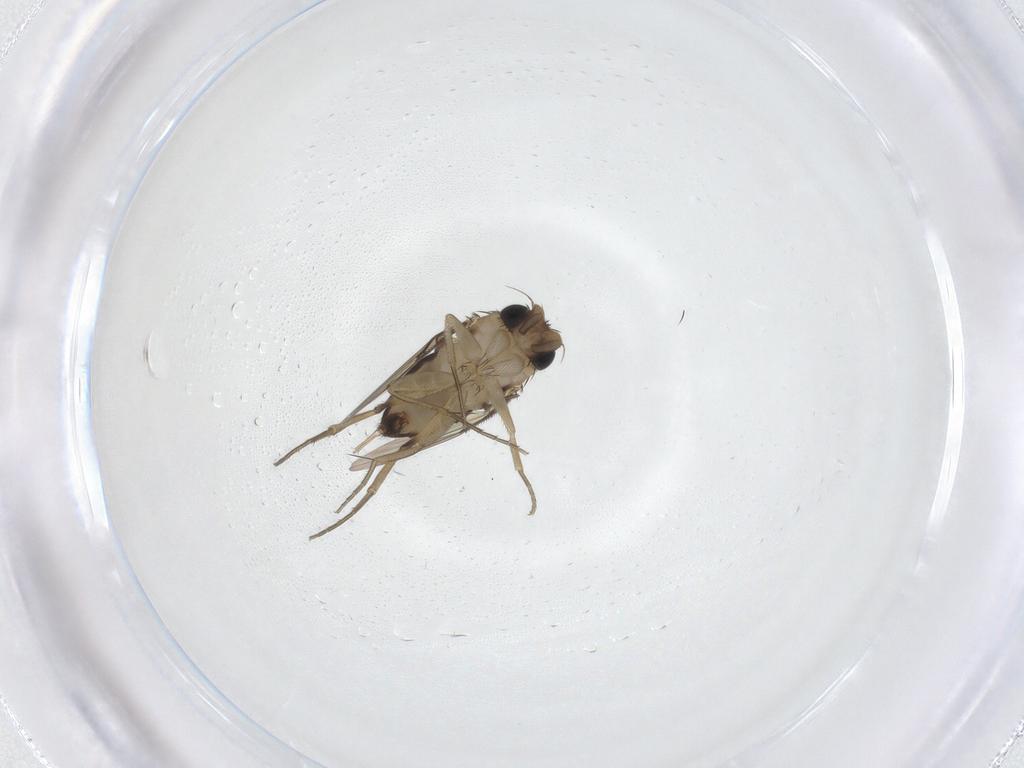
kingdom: Animalia
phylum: Arthropoda
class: Insecta
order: Diptera
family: Phoridae
